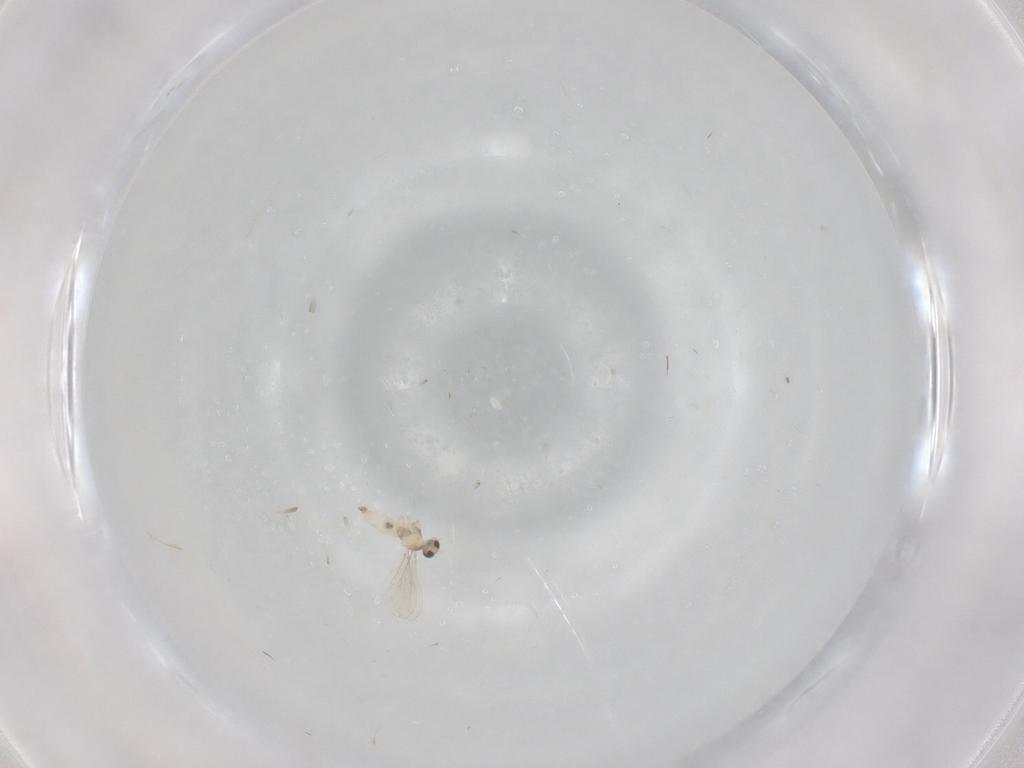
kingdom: Animalia
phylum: Arthropoda
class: Insecta
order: Diptera
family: Cecidomyiidae
